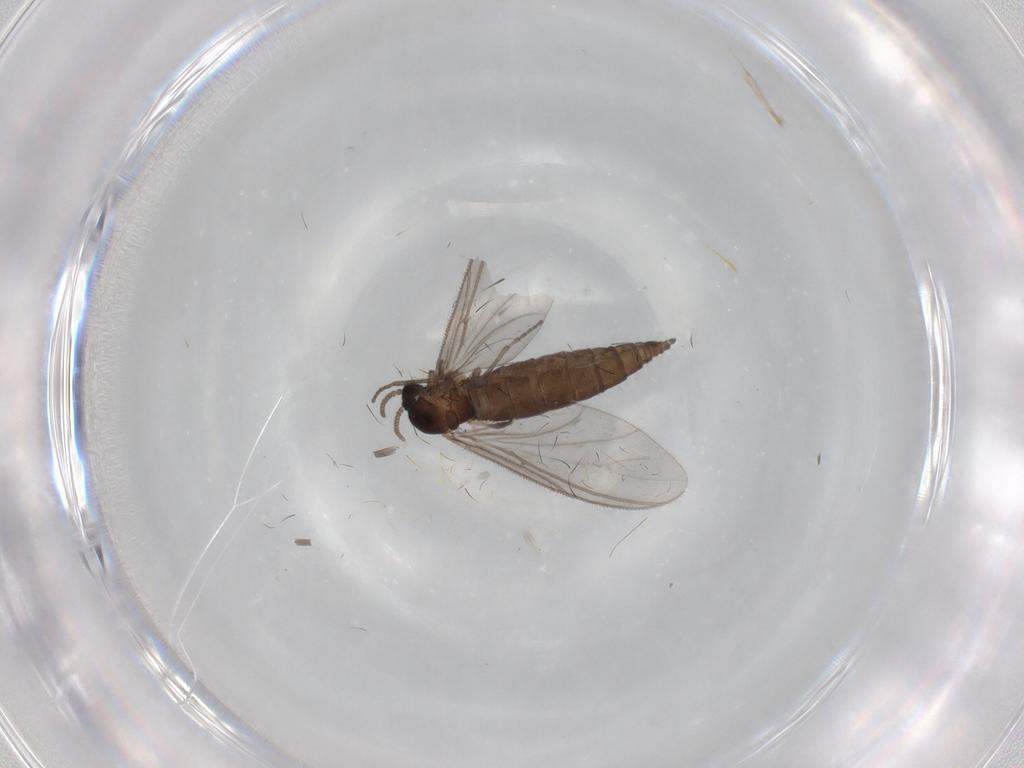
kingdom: Animalia
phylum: Arthropoda
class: Insecta
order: Diptera
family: Sciaridae
